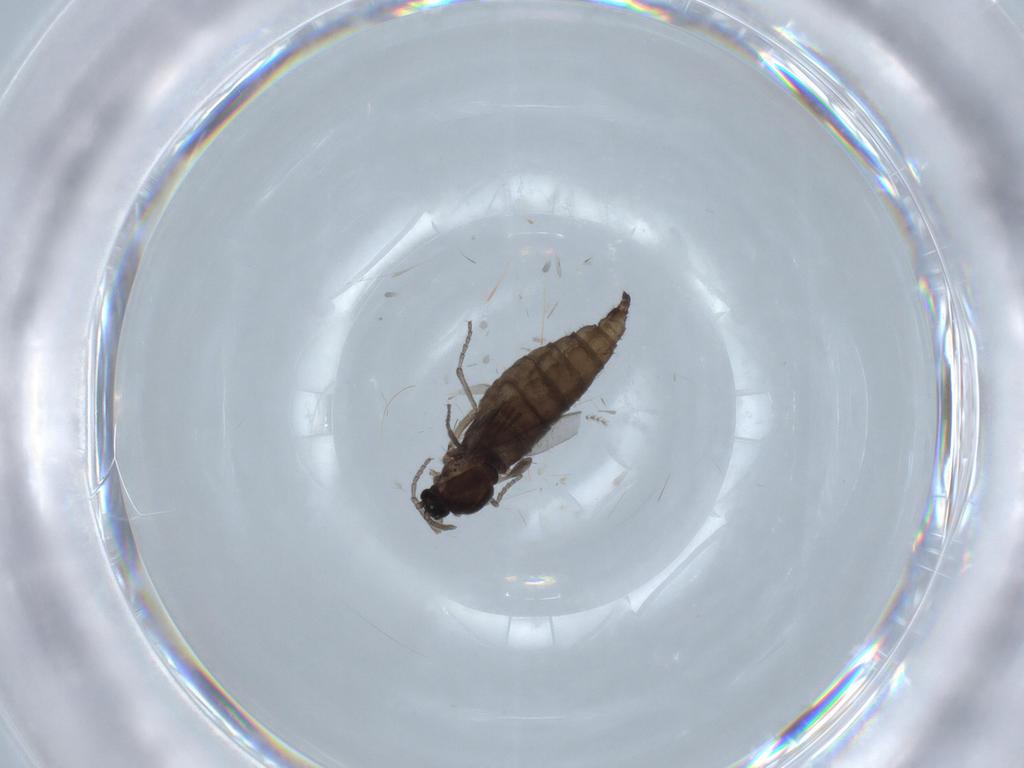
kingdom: Animalia
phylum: Arthropoda
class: Insecta
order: Diptera
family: Sciaridae
